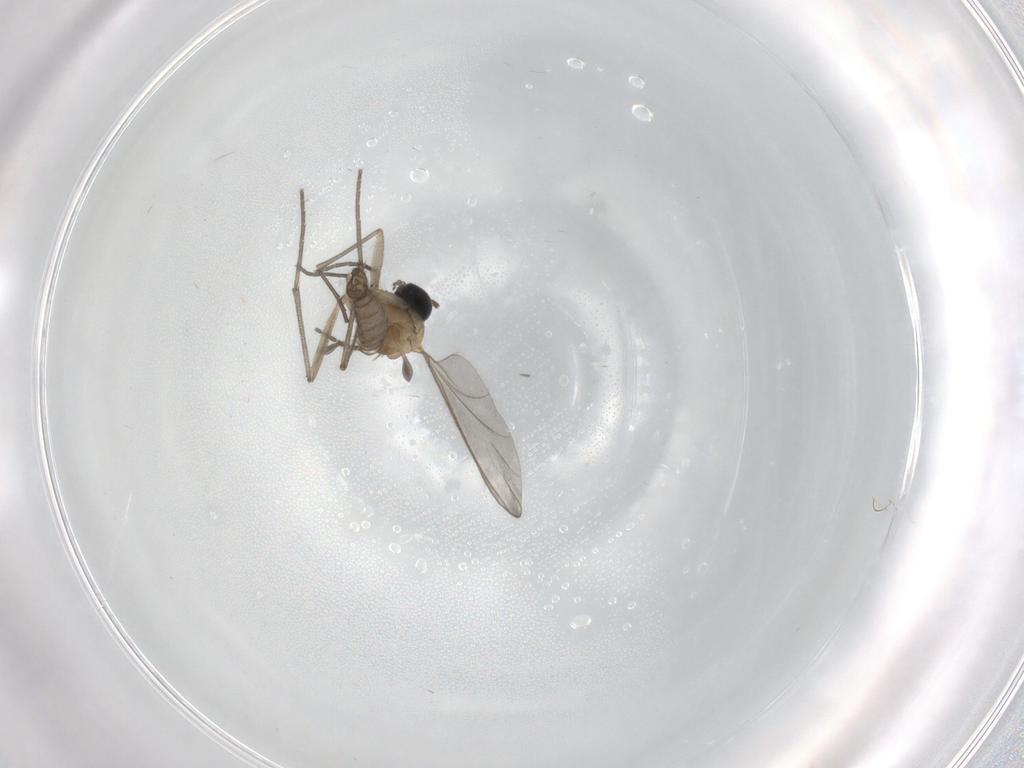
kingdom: Animalia
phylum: Arthropoda
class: Insecta
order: Diptera
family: Sciaridae
